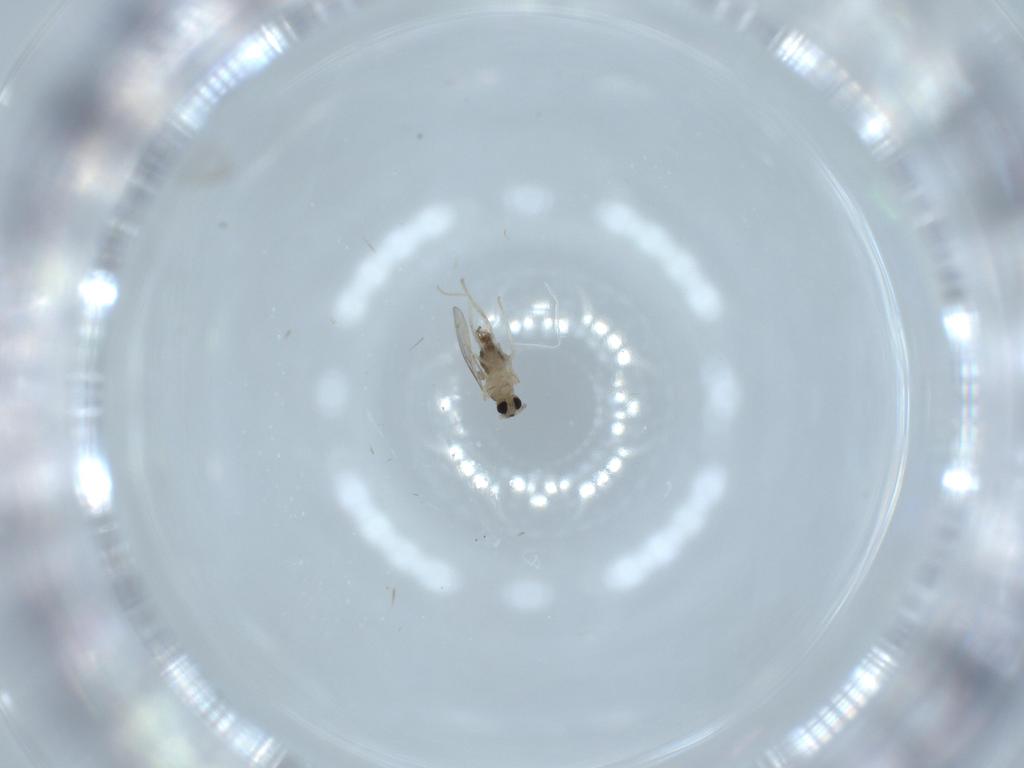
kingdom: Animalia
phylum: Arthropoda
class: Insecta
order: Diptera
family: Cecidomyiidae
